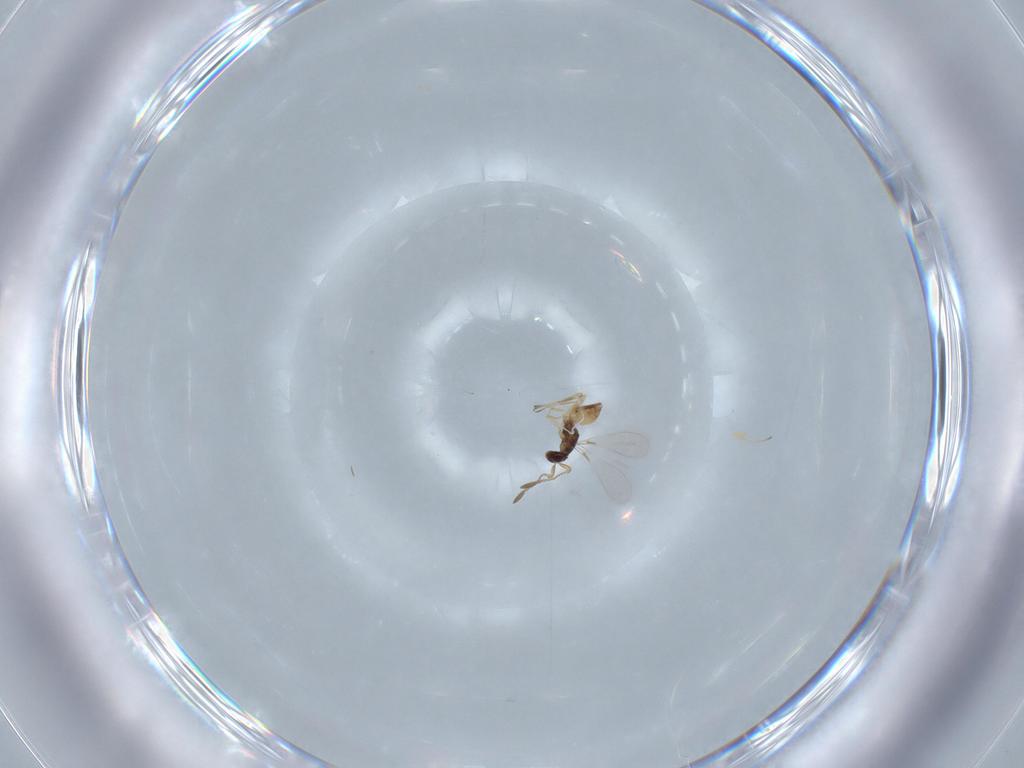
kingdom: Animalia
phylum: Arthropoda
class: Insecta
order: Hymenoptera
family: Mymaridae
